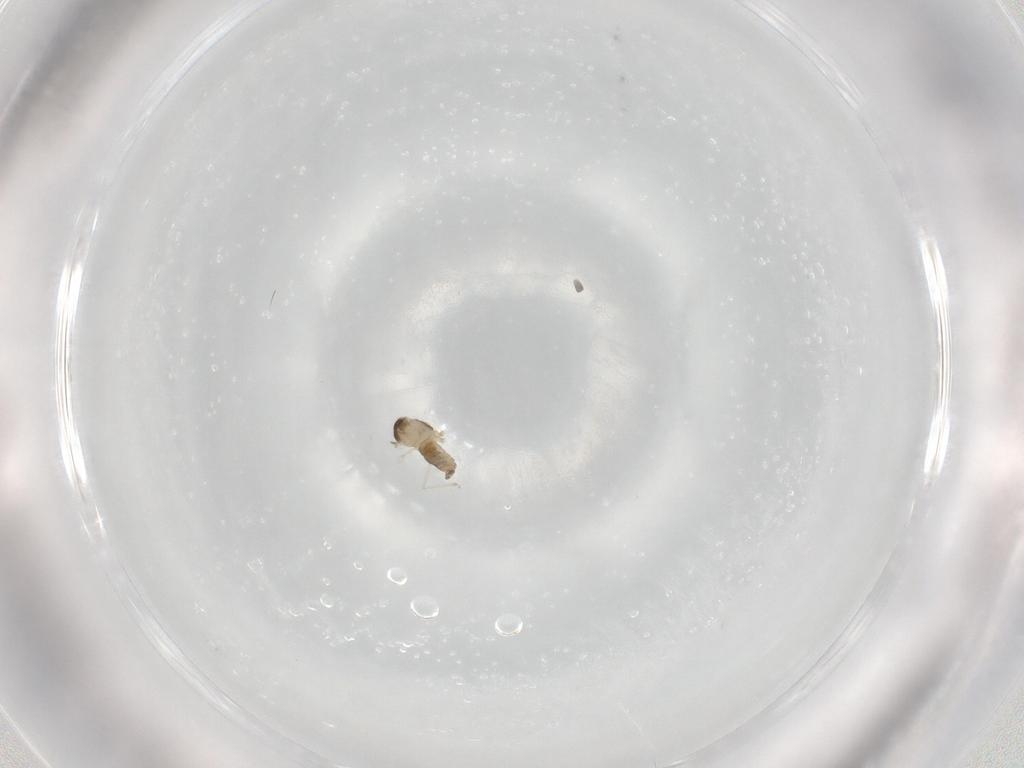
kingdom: Animalia
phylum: Arthropoda
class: Insecta
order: Diptera
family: Cecidomyiidae
